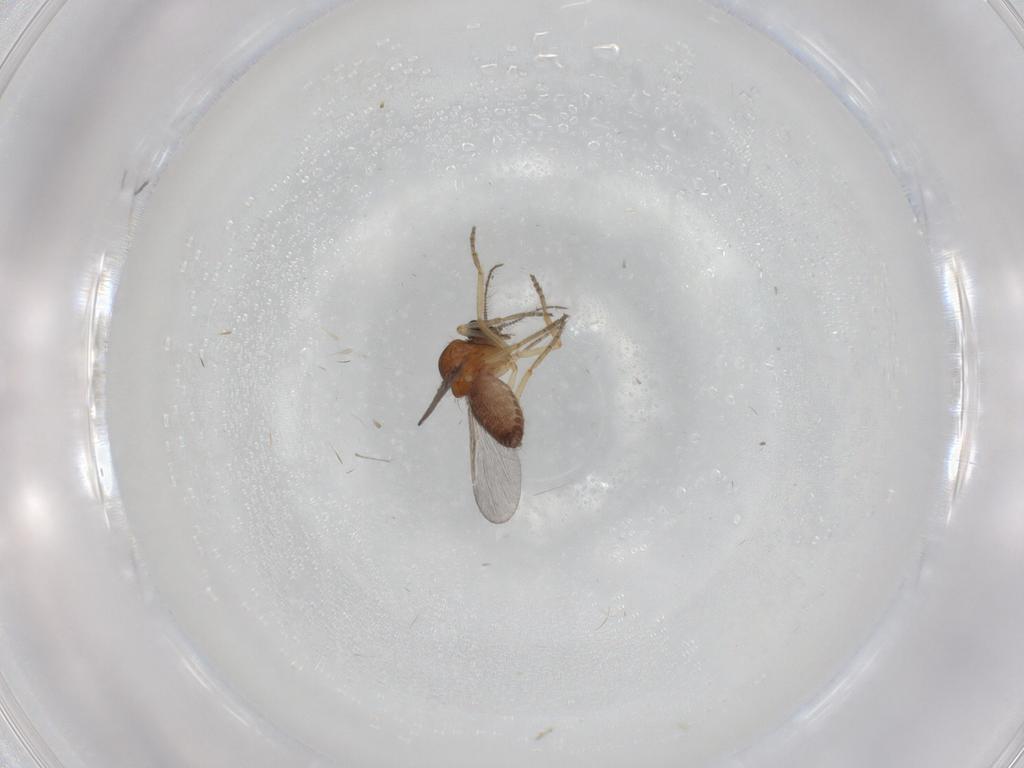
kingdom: Animalia
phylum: Arthropoda
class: Insecta
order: Diptera
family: Ceratopogonidae
